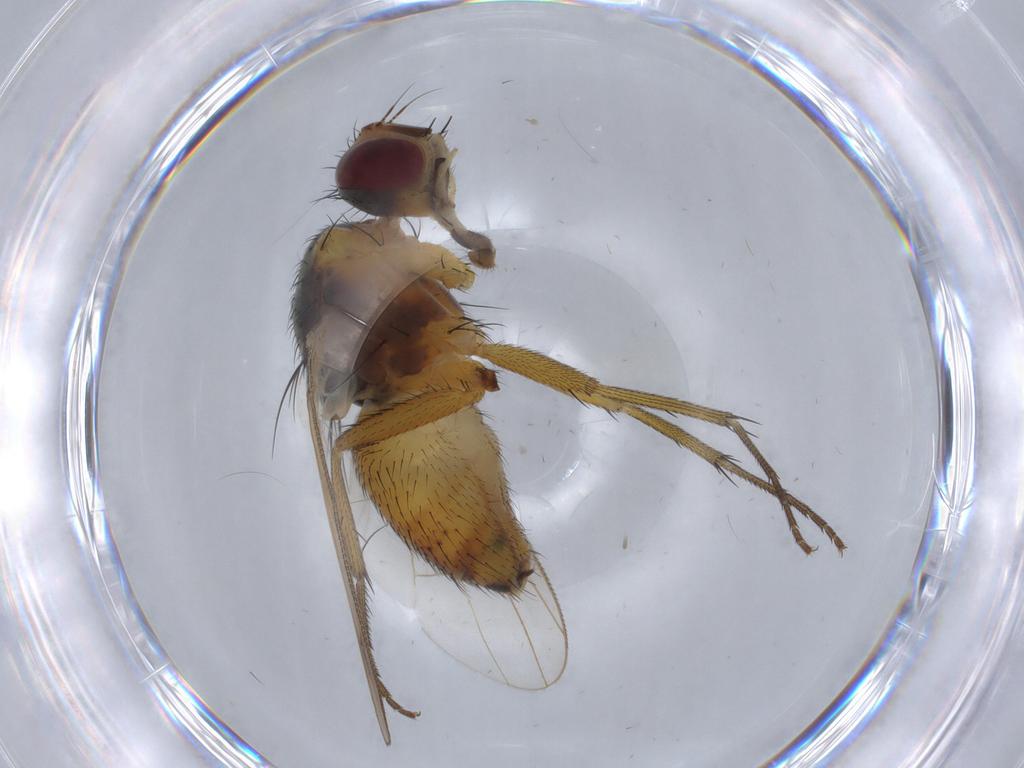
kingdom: Animalia
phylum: Arthropoda
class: Insecta
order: Diptera
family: Muscidae
